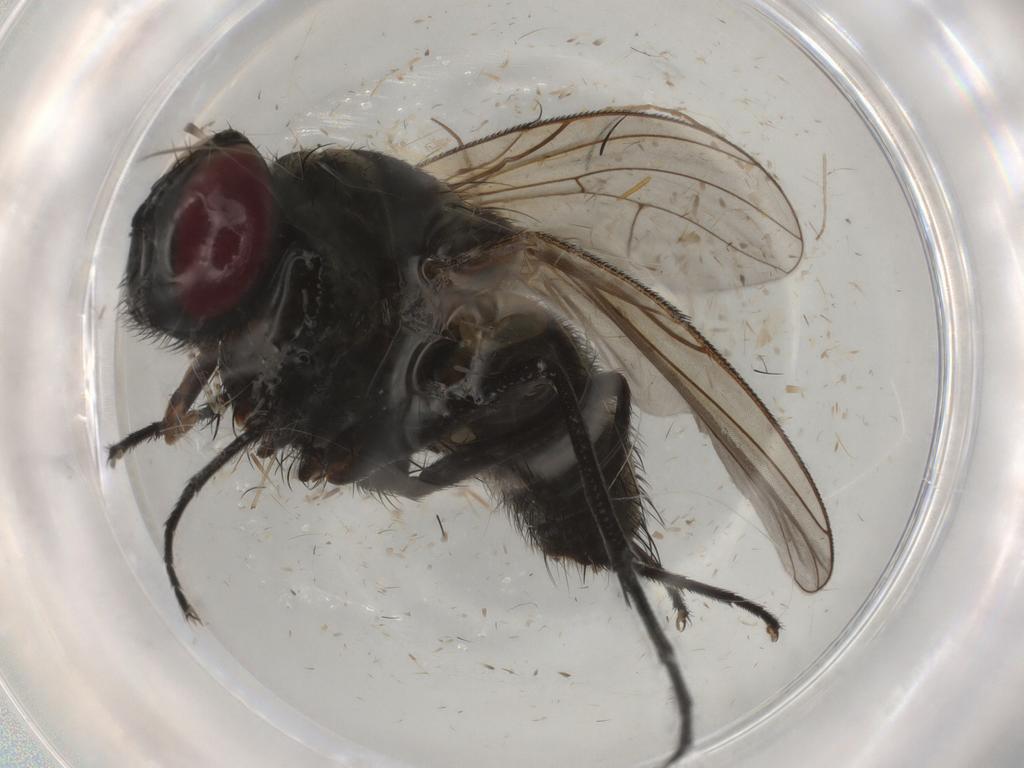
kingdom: Animalia
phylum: Arthropoda
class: Insecta
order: Diptera
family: Muscidae
